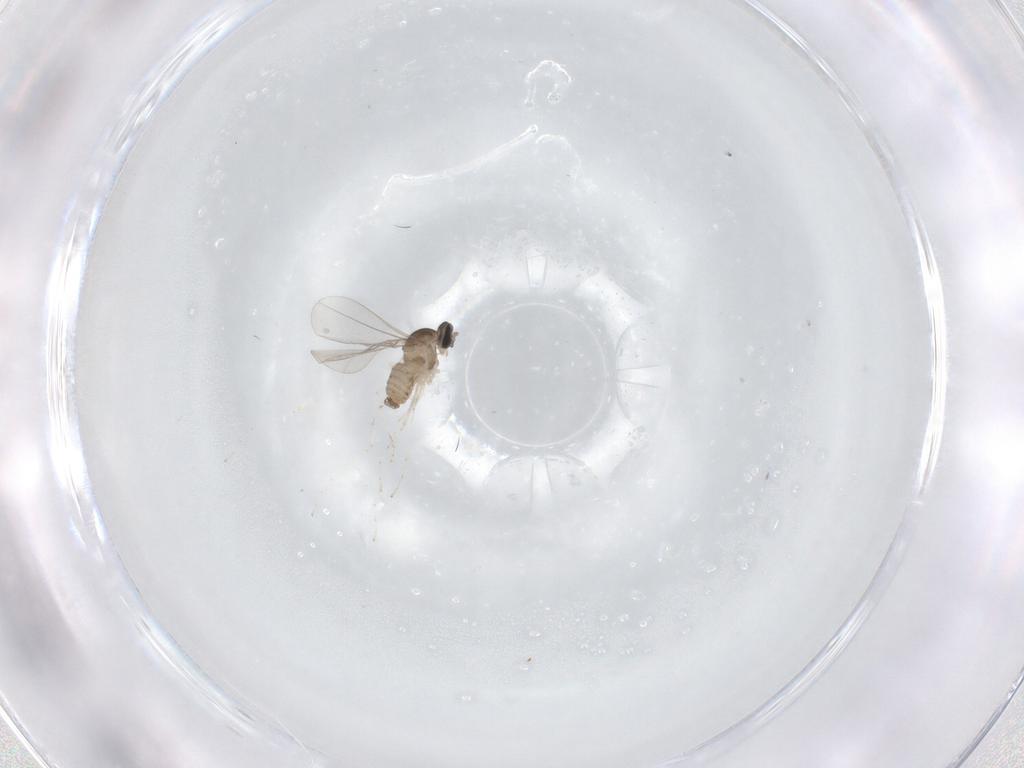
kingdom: Animalia
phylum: Arthropoda
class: Insecta
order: Diptera
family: Cecidomyiidae
